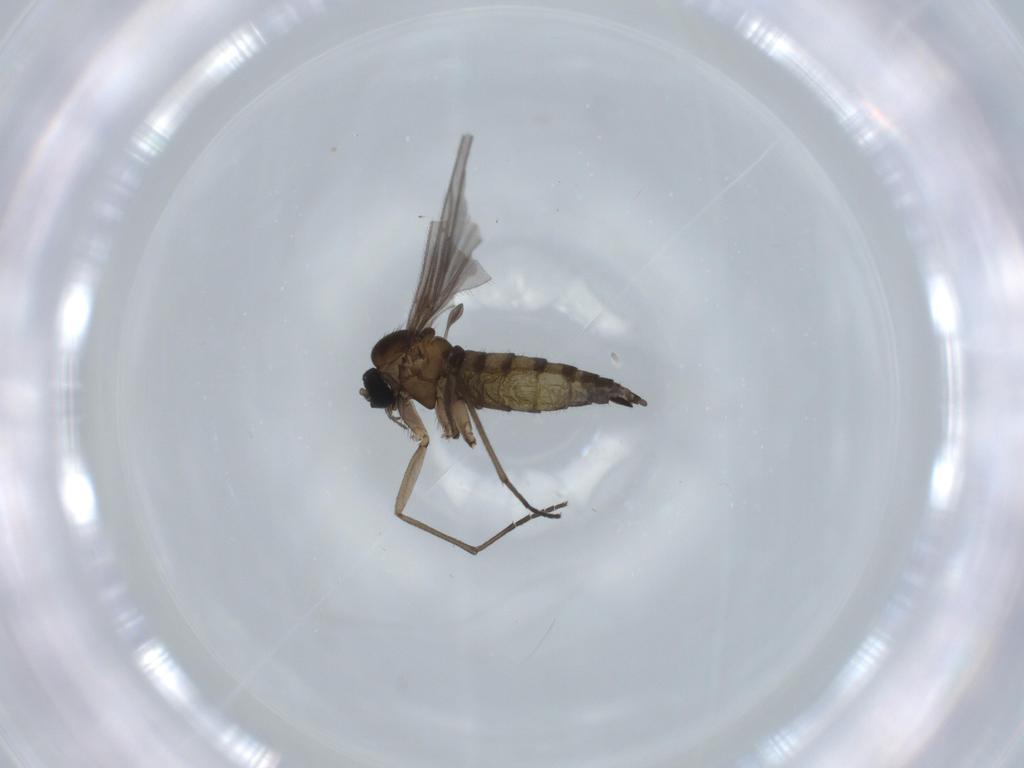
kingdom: Animalia
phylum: Arthropoda
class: Insecta
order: Diptera
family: Sciaridae
